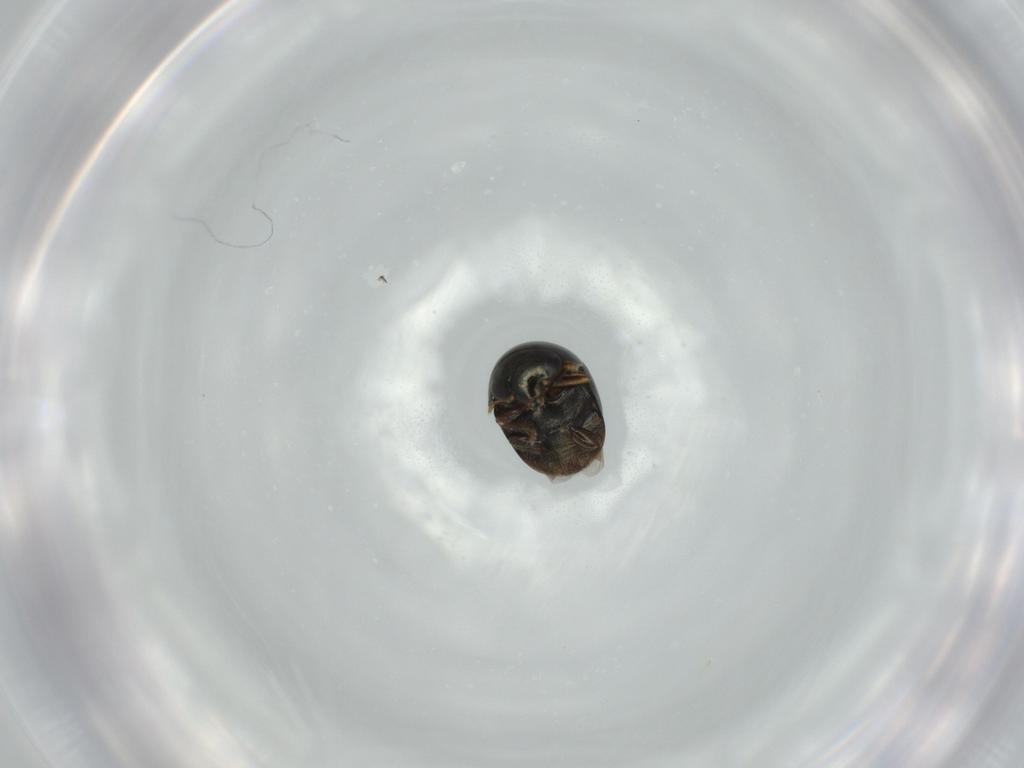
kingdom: Animalia
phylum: Arthropoda
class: Insecta
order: Coleoptera
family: Cybocephalidae
